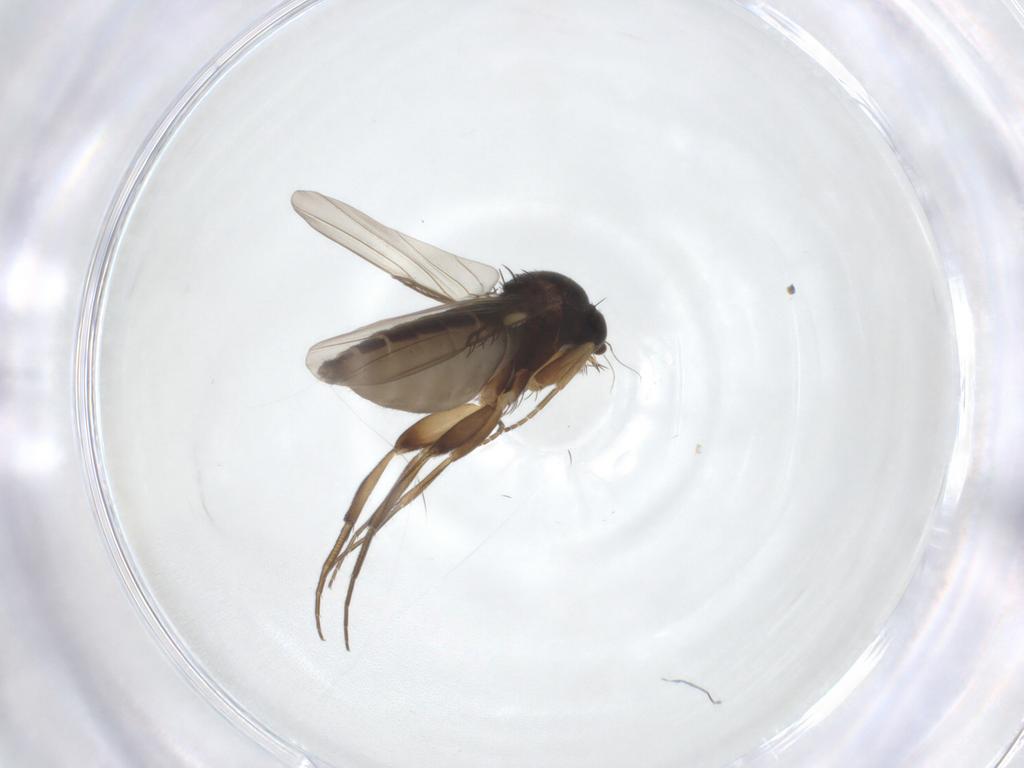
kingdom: Animalia
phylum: Arthropoda
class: Insecta
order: Diptera
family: Phoridae
